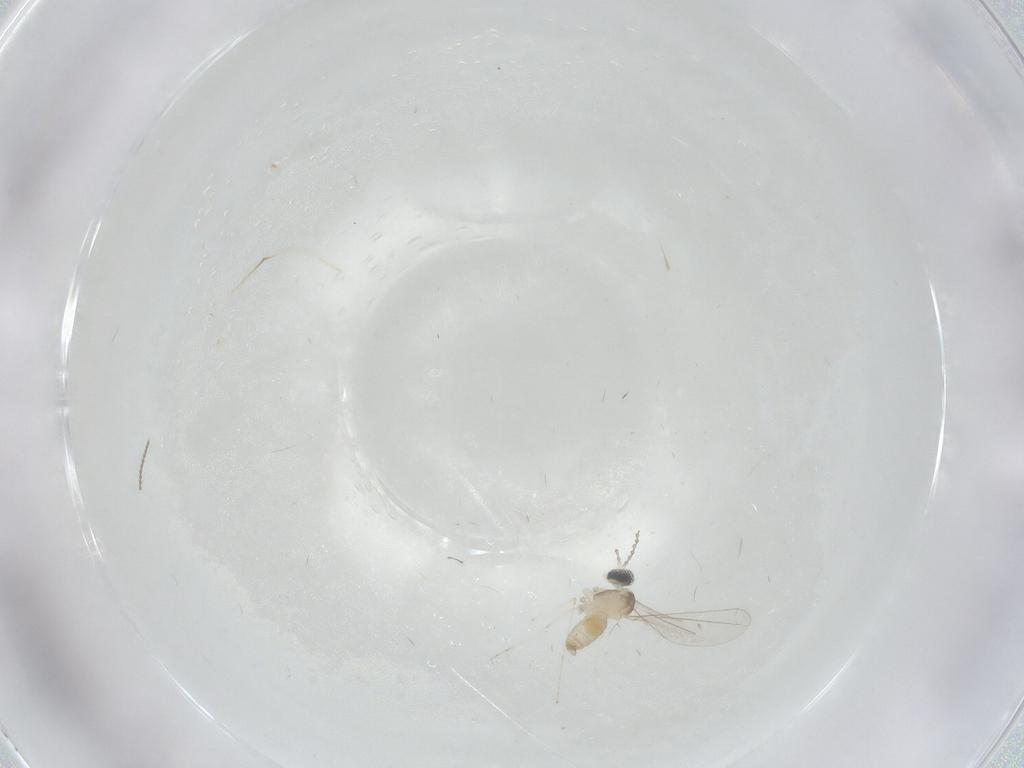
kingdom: Animalia
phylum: Arthropoda
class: Insecta
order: Diptera
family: Cecidomyiidae
